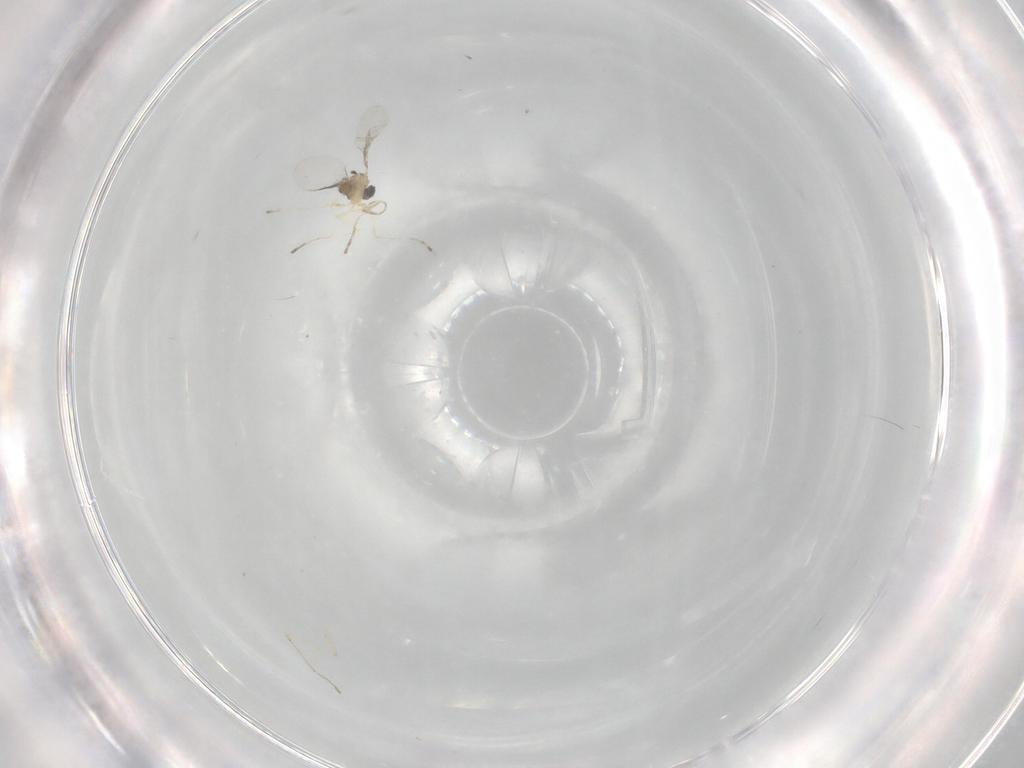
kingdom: Animalia
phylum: Arthropoda
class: Insecta
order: Diptera
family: Cecidomyiidae
